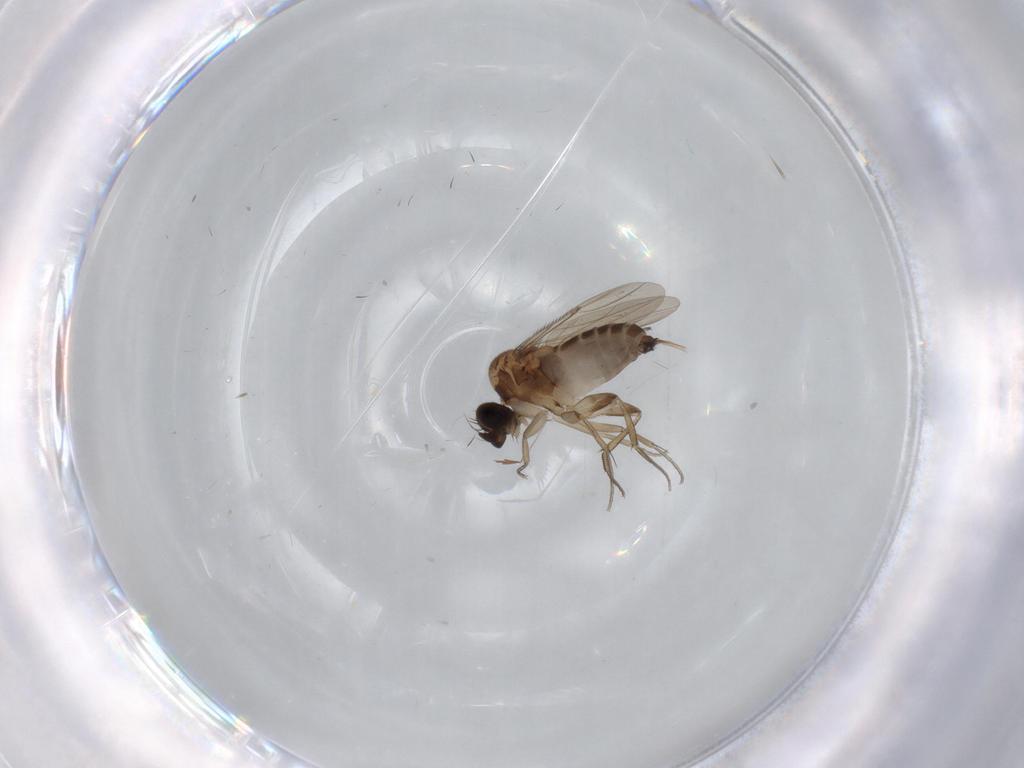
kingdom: Animalia
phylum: Arthropoda
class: Insecta
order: Diptera
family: Phoridae
